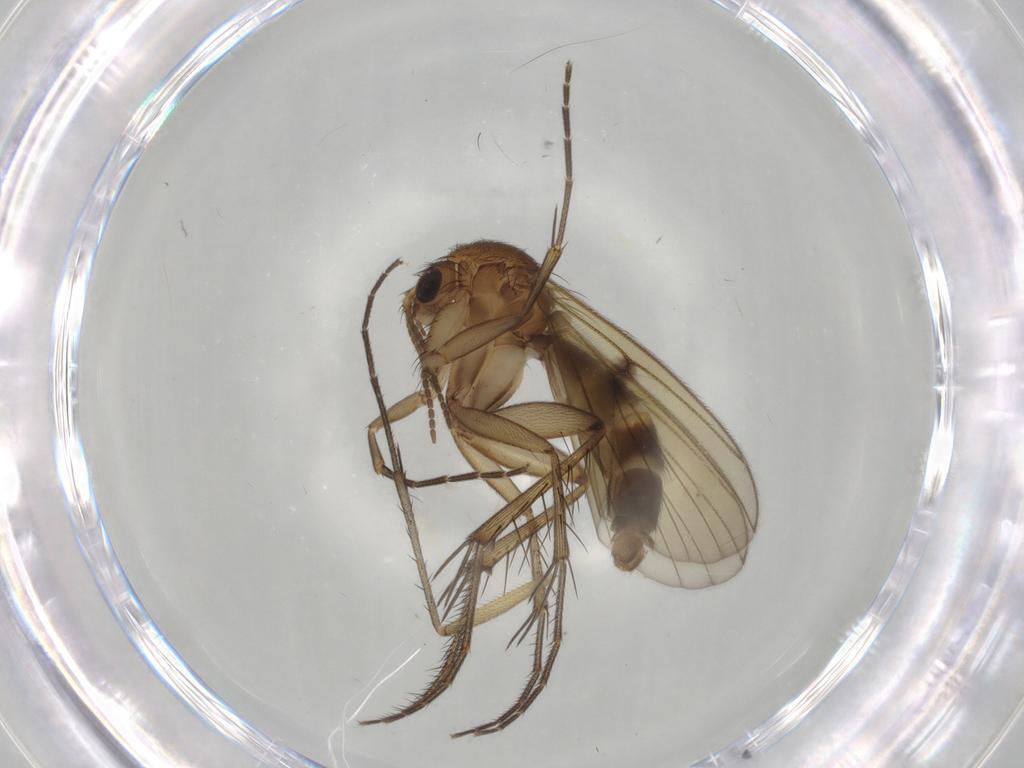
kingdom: Animalia
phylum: Arthropoda
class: Insecta
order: Diptera
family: Mycetophilidae
